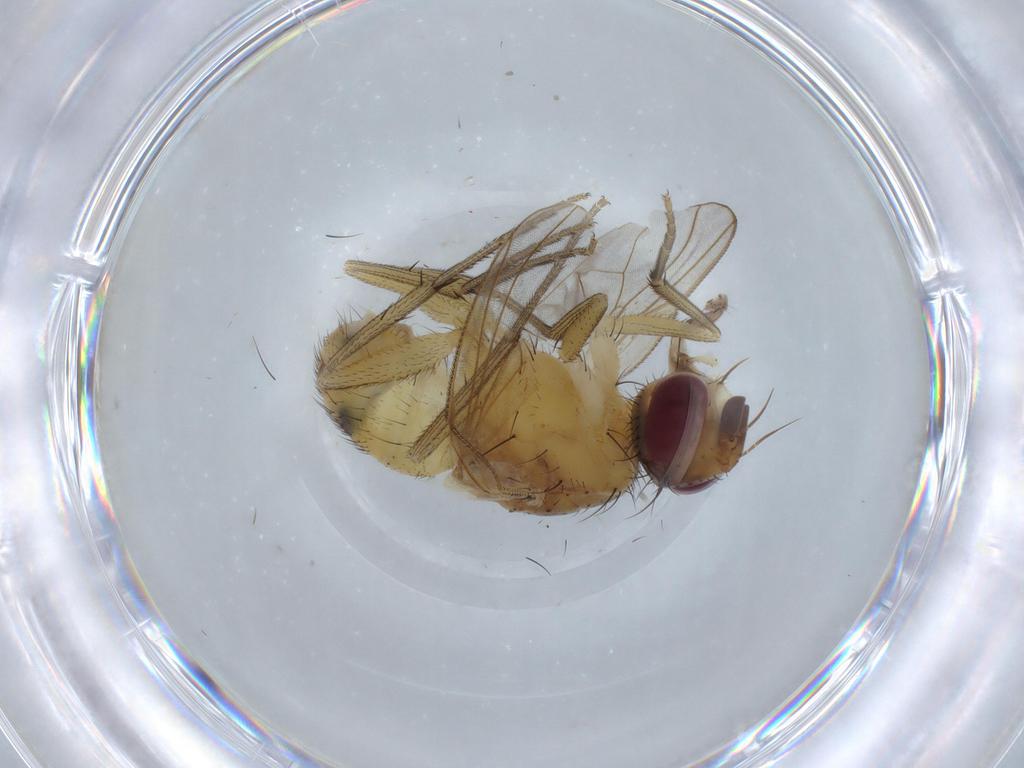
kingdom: Animalia
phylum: Arthropoda
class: Insecta
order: Diptera
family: Muscidae
